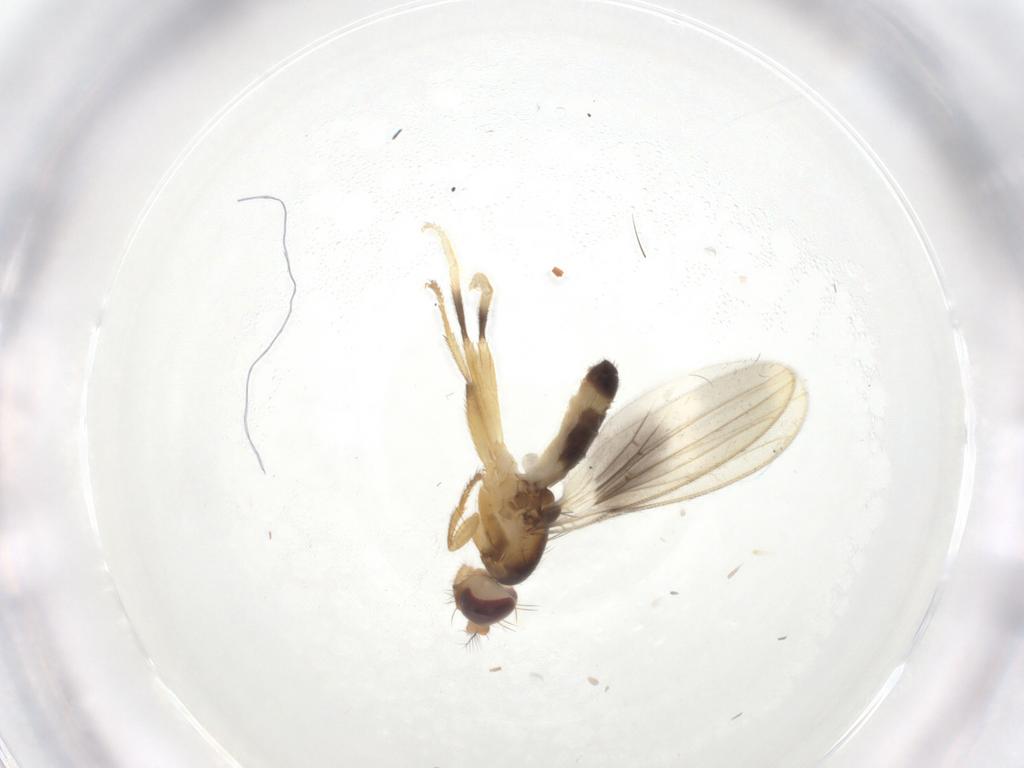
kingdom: Animalia
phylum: Arthropoda
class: Insecta
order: Diptera
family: Periscelididae
